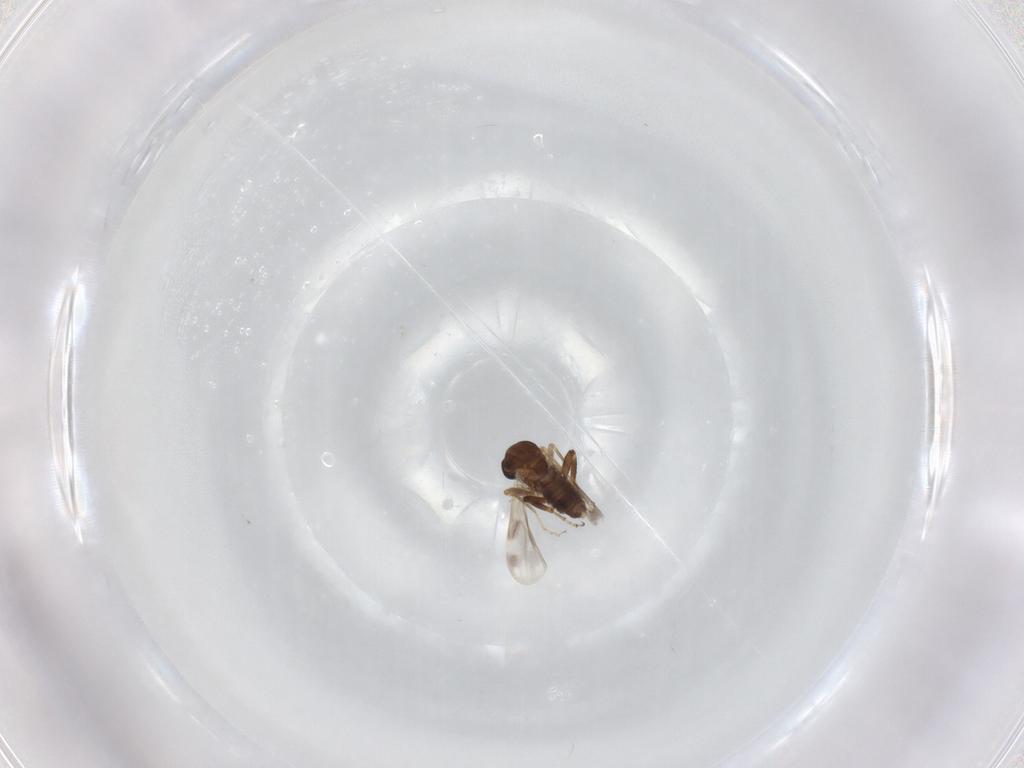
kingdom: Animalia
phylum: Arthropoda
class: Insecta
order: Diptera
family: Ceratopogonidae
